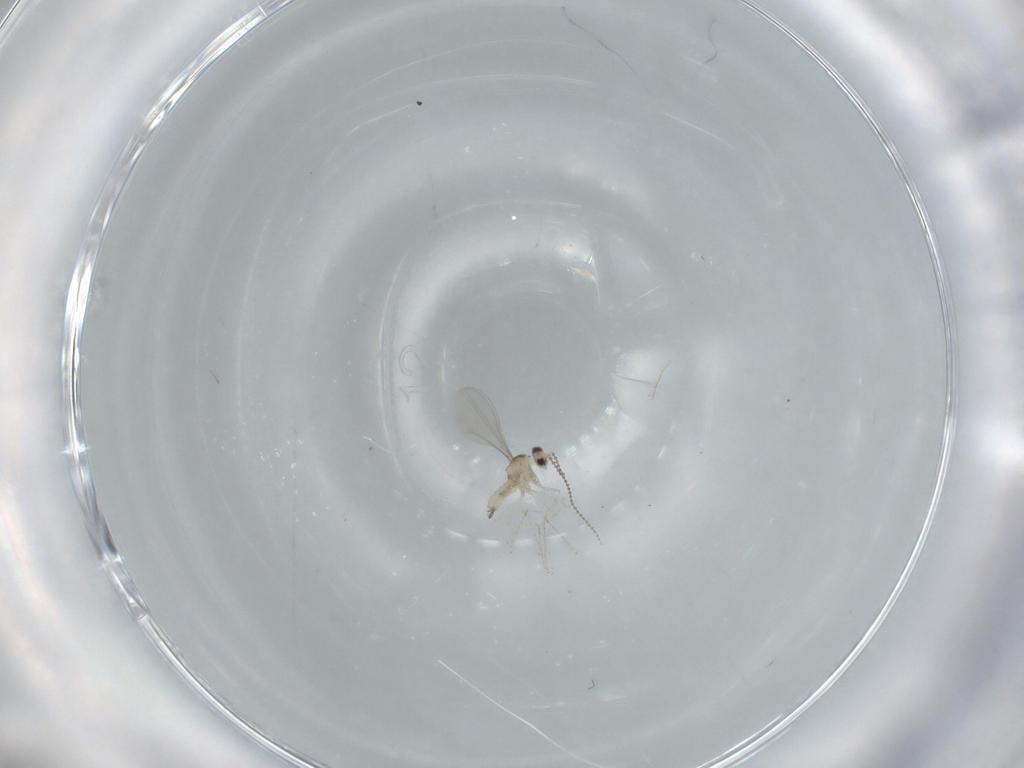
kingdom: Animalia
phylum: Arthropoda
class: Insecta
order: Diptera
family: Cecidomyiidae
